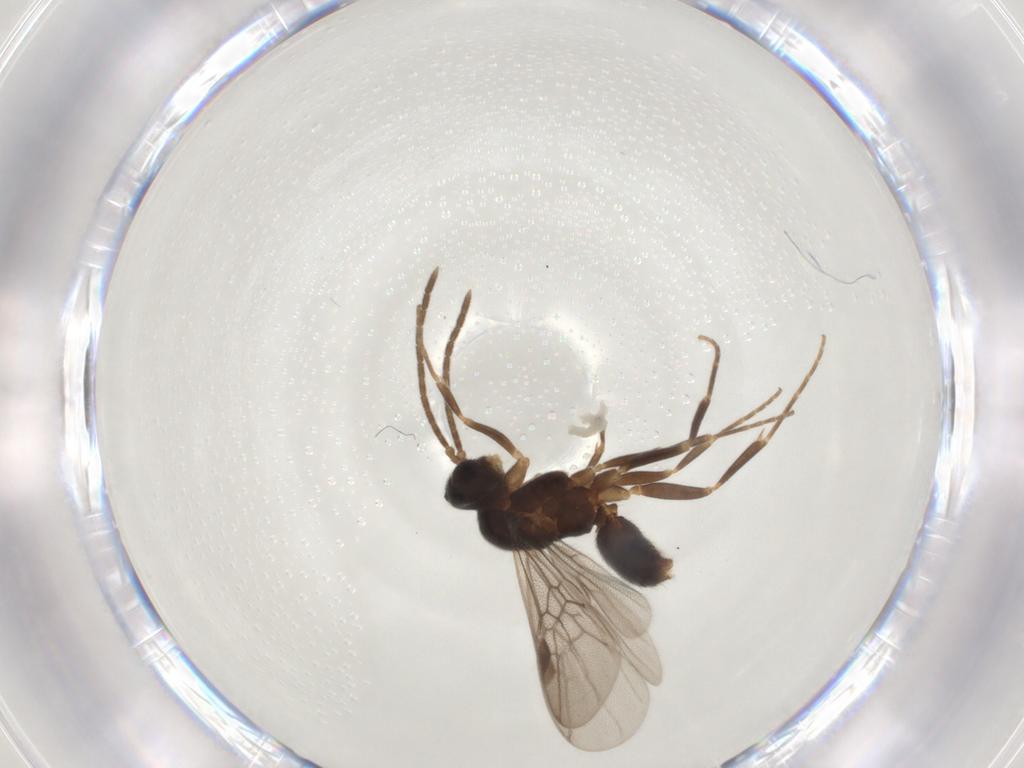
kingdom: Animalia
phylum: Arthropoda
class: Insecta
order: Hymenoptera
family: Formicidae
